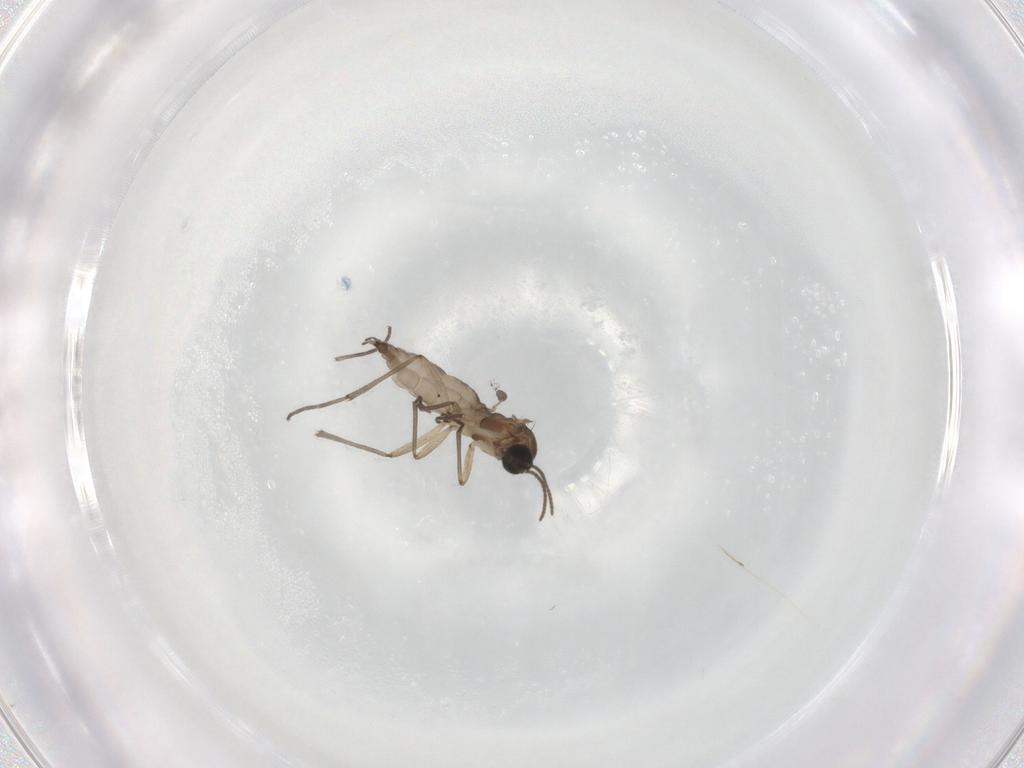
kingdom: Animalia
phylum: Arthropoda
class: Insecta
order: Diptera
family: Sciaridae
